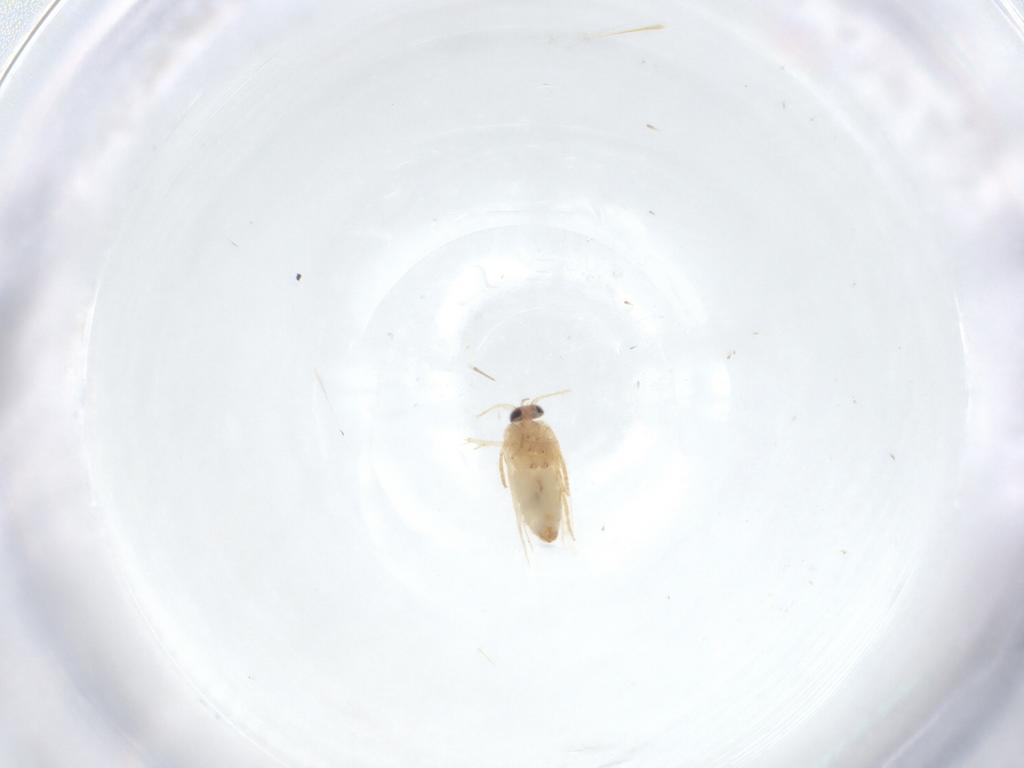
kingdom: Animalia
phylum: Arthropoda
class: Insecta
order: Lepidoptera
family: Crambidae
